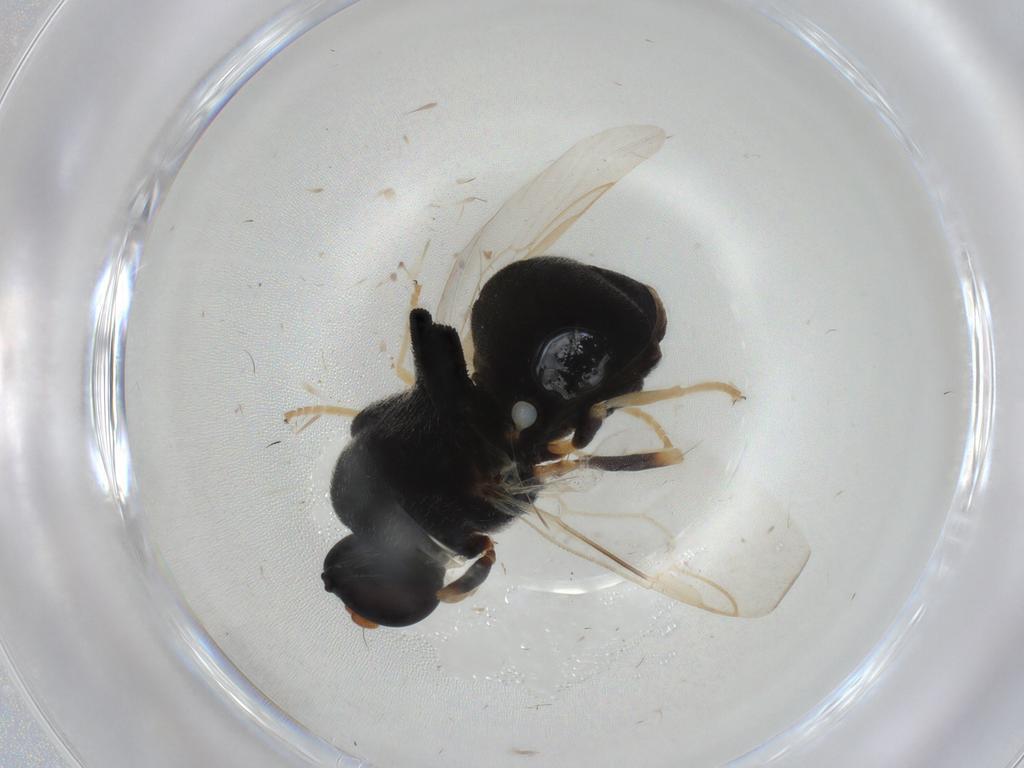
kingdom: Animalia
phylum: Arthropoda
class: Insecta
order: Diptera
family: Stratiomyidae
